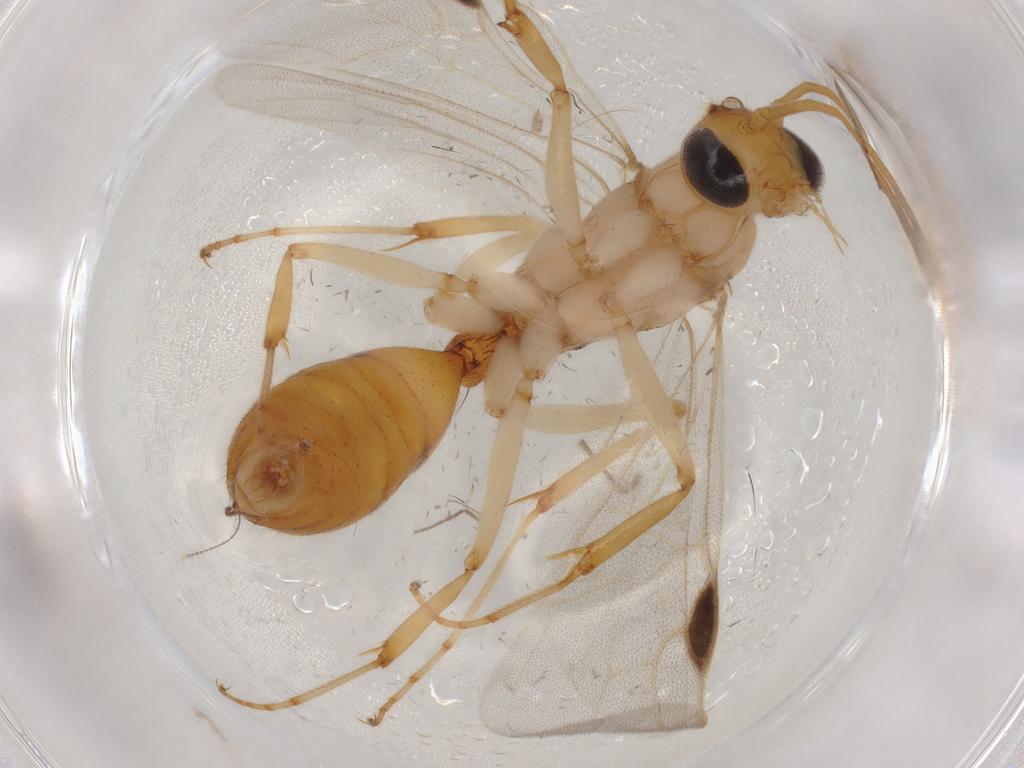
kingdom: Animalia
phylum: Arthropoda
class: Insecta
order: Hymenoptera
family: Formicidae
